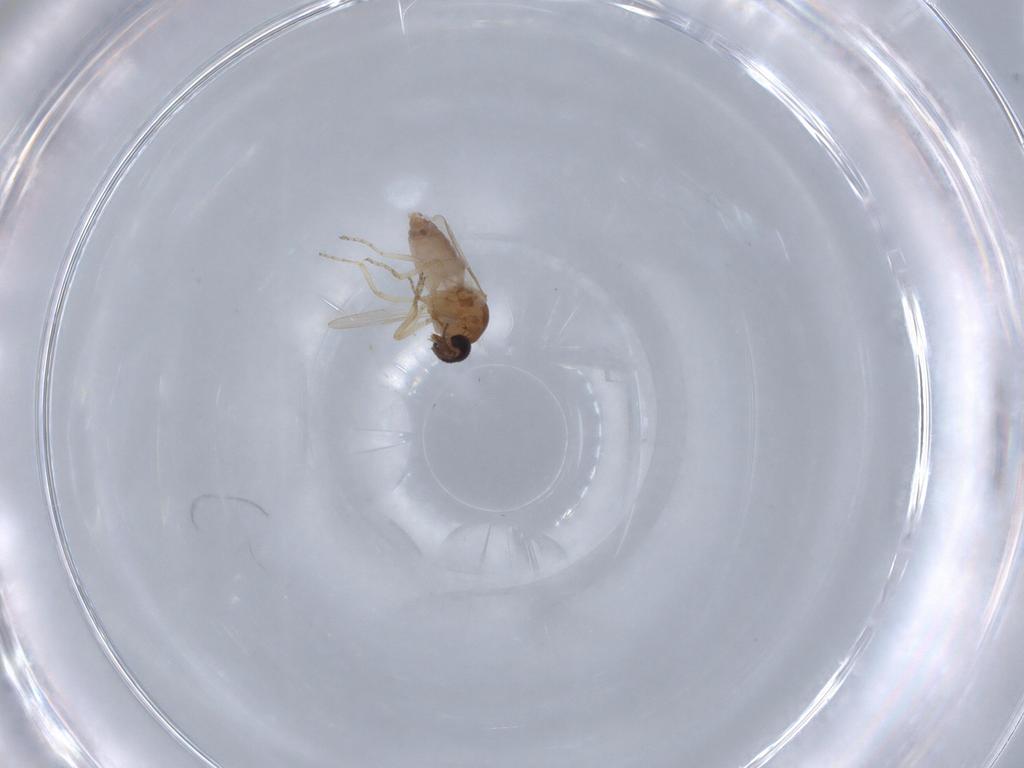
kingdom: Animalia
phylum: Arthropoda
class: Insecta
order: Diptera
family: Ceratopogonidae
